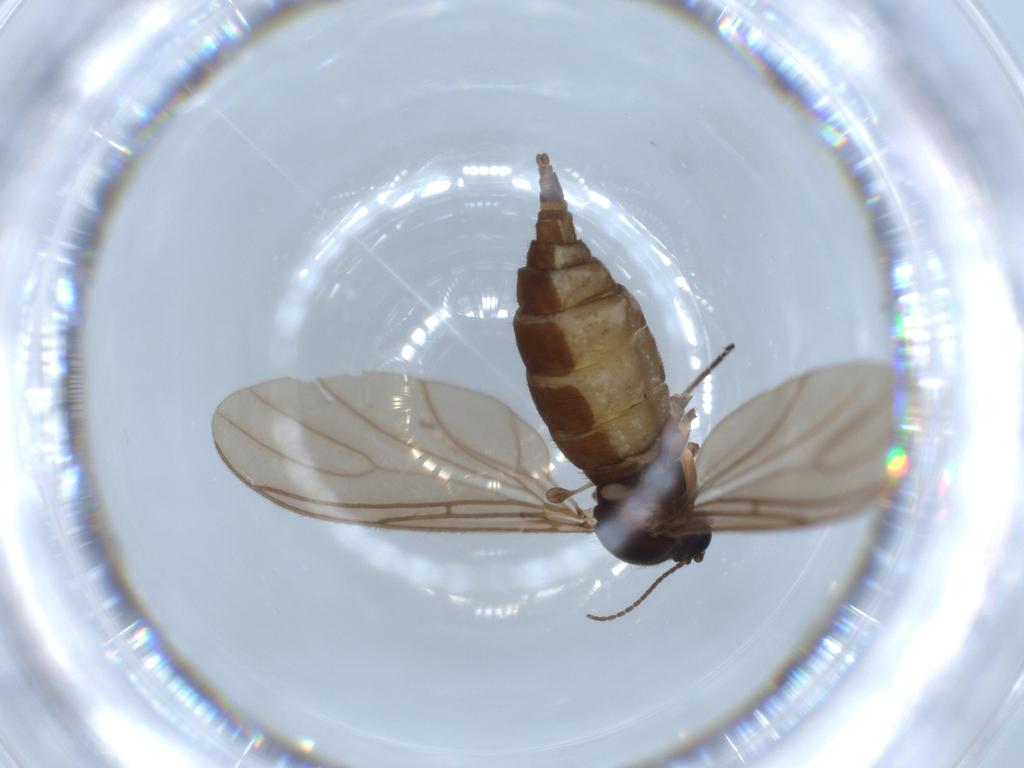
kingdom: Animalia
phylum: Arthropoda
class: Insecta
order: Diptera
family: Sciaridae
